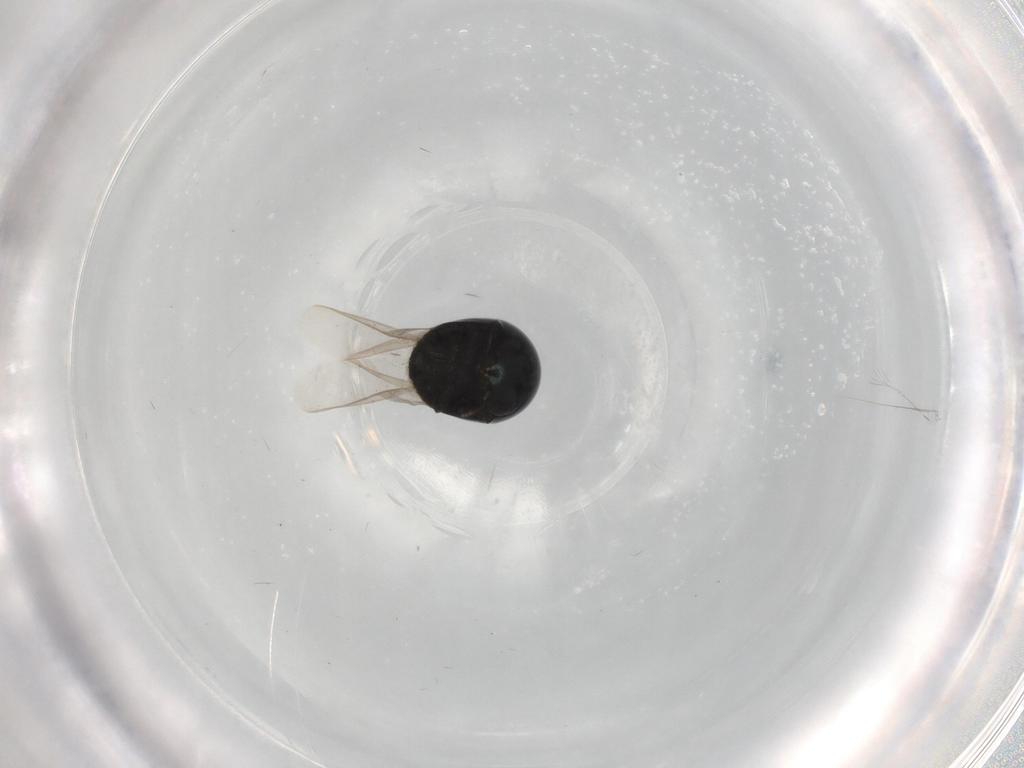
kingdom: Animalia
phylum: Arthropoda
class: Insecta
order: Coleoptera
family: Cybocephalidae
